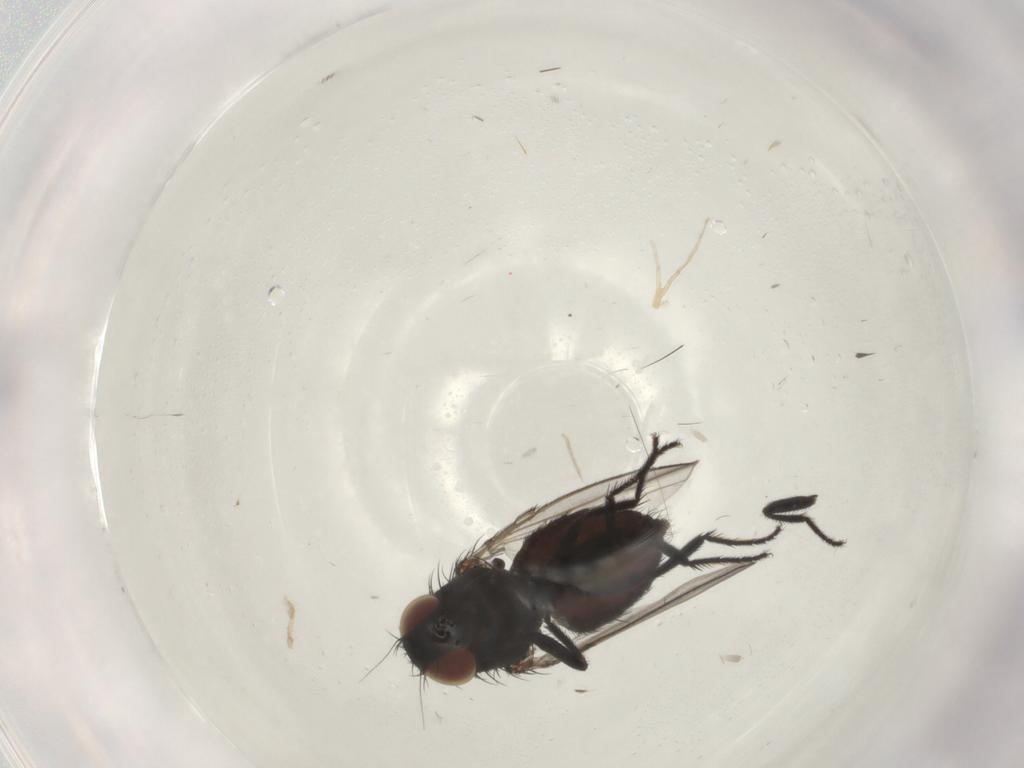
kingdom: Animalia
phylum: Arthropoda
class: Insecta
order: Diptera
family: Milichiidae
